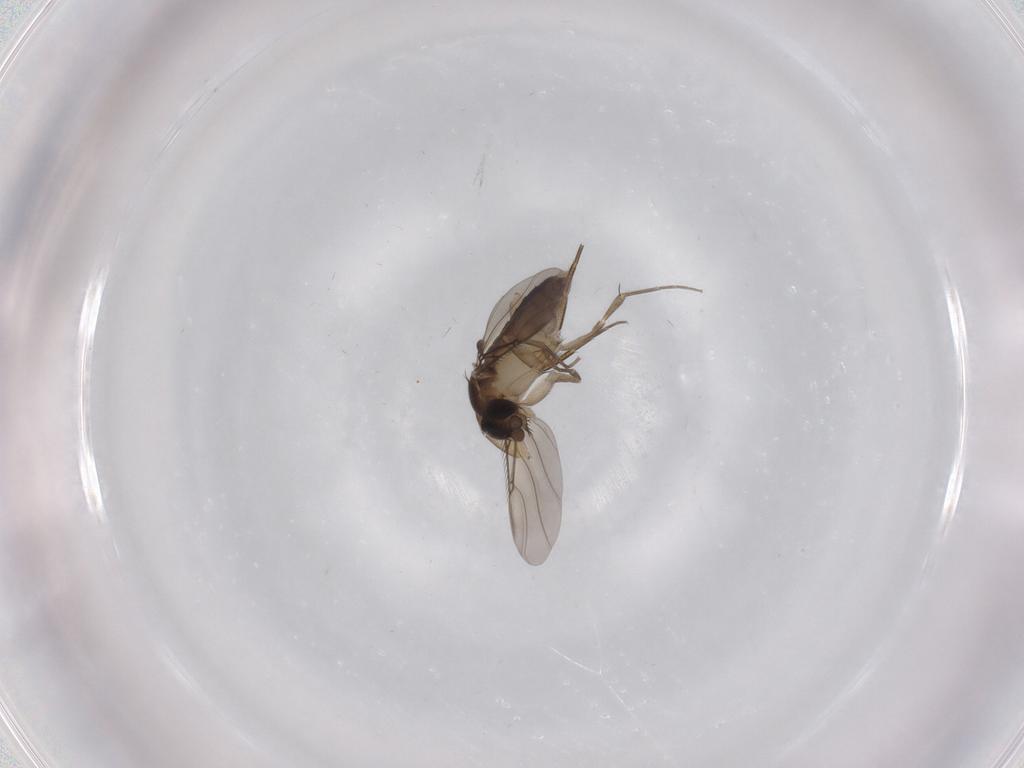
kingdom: Animalia
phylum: Arthropoda
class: Insecta
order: Diptera
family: Phoridae
